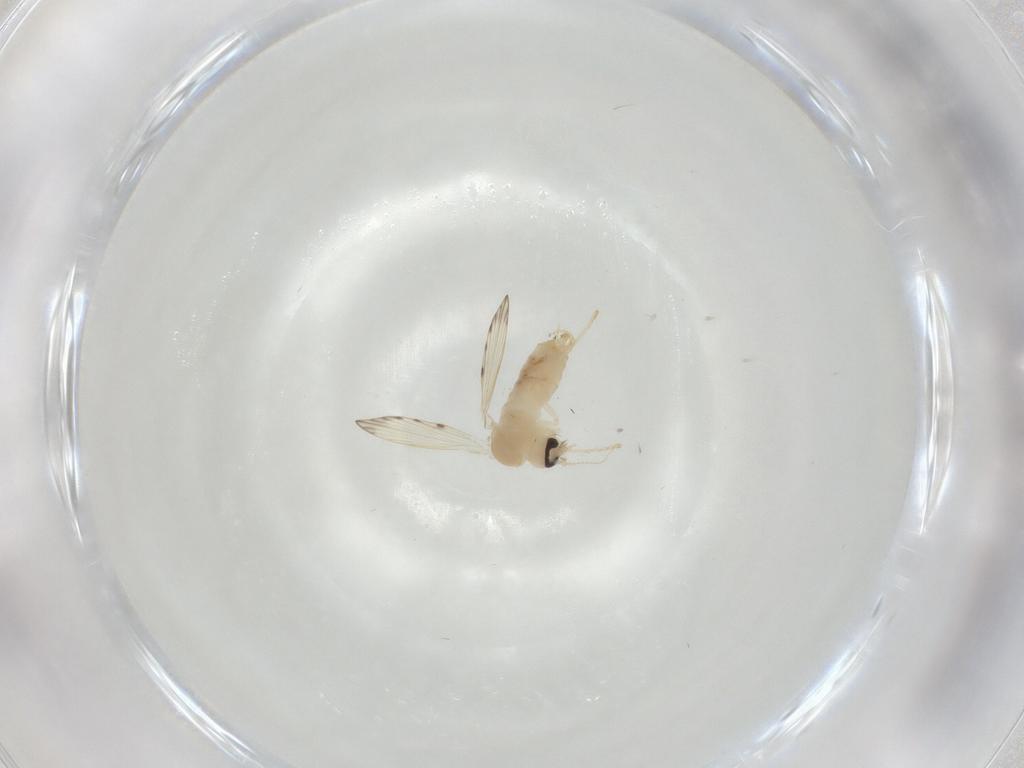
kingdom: Animalia
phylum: Arthropoda
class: Insecta
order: Diptera
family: Psychodidae
